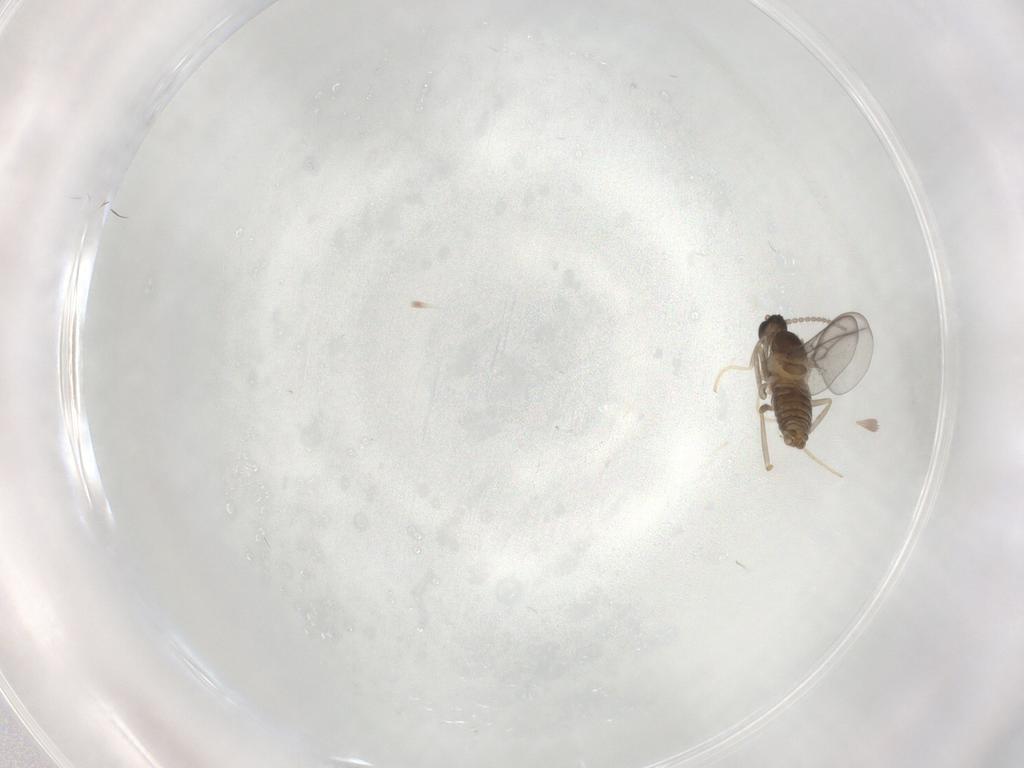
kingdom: Animalia
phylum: Arthropoda
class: Insecta
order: Diptera
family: Cecidomyiidae
